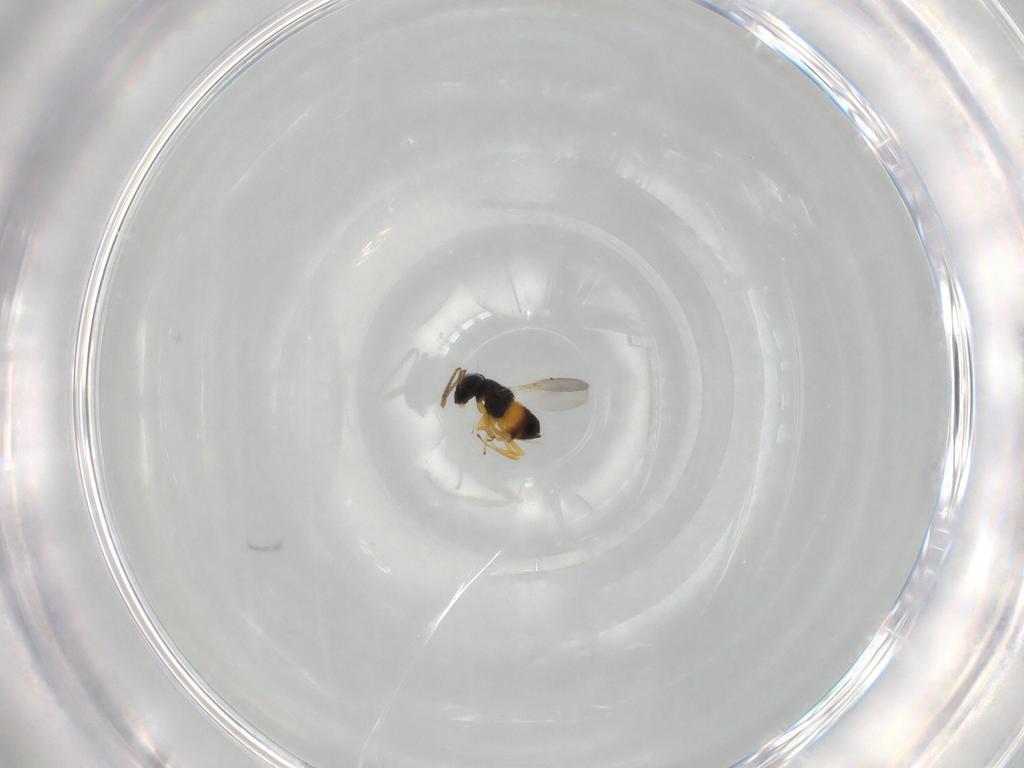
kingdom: Animalia
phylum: Arthropoda
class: Insecta
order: Hymenoptera
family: Encyrtidae
